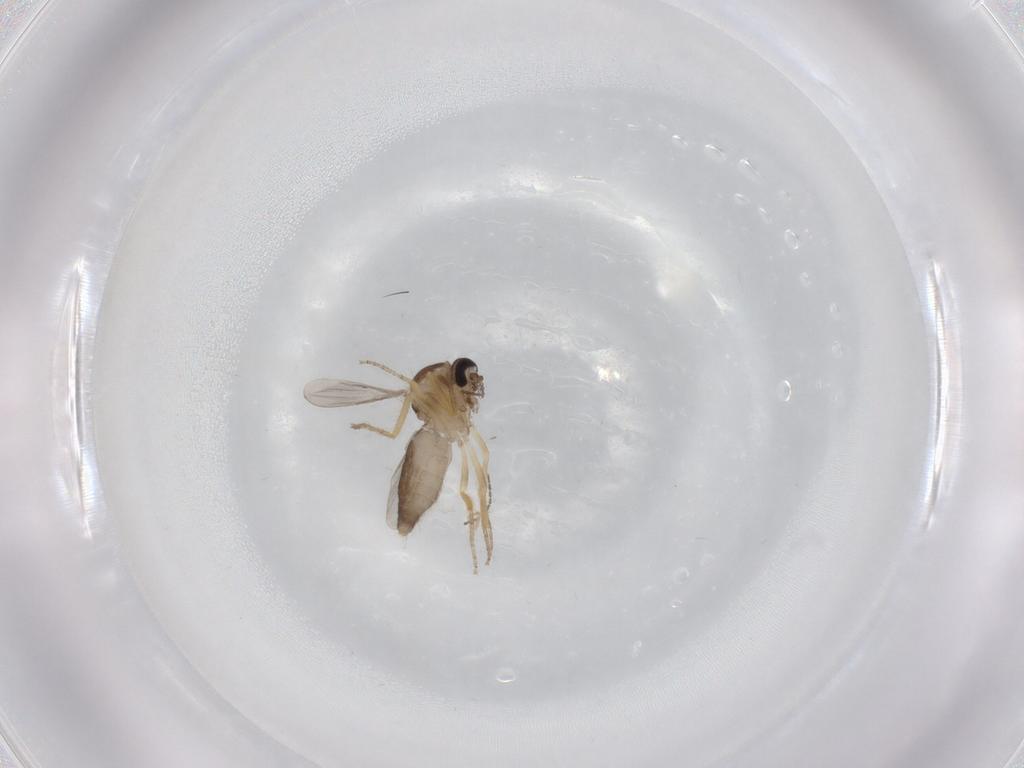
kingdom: Animalia
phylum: Arthropoda
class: Insecta
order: Diptera
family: Ceratopogonidae
